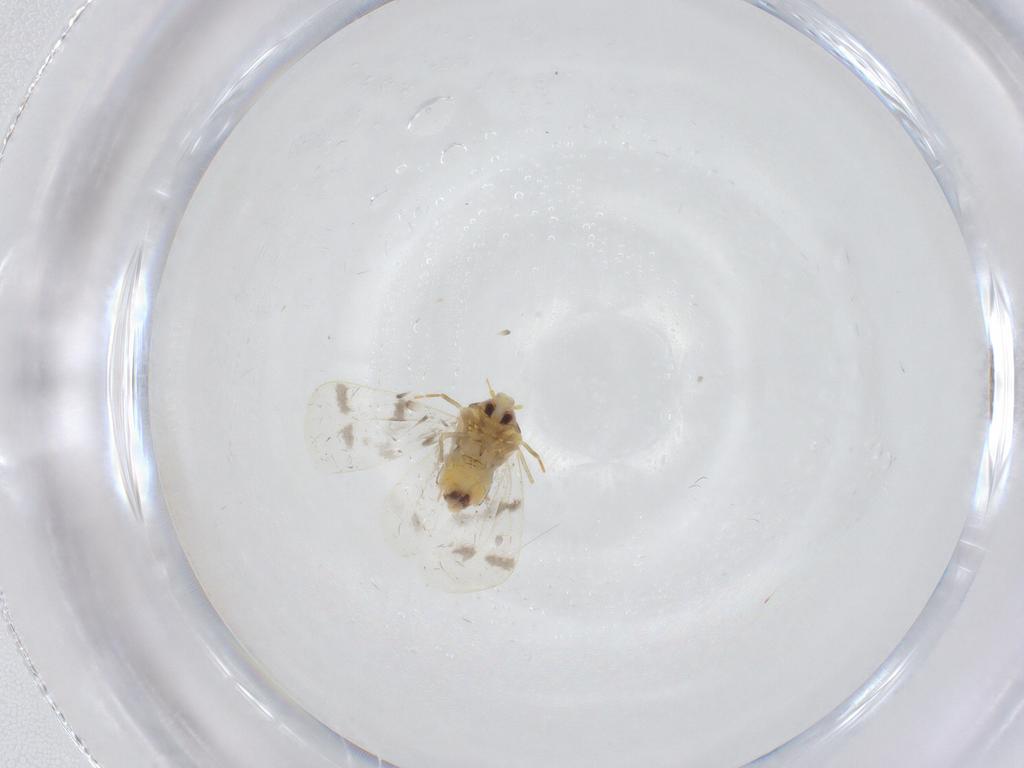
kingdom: Animalia
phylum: Arthropoda
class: Insecta
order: Hemiptera
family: Aleyrodidae
